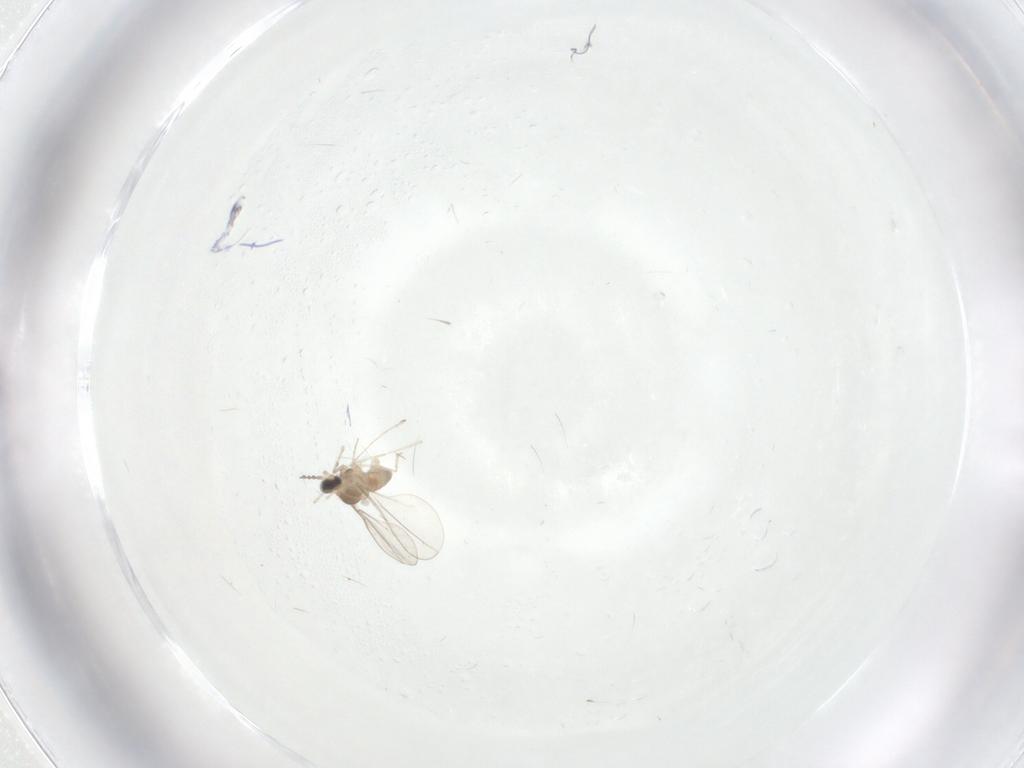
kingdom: Animalia
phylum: Arthropoda
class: Insecta
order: Diptera
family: Cecidomyiidae
